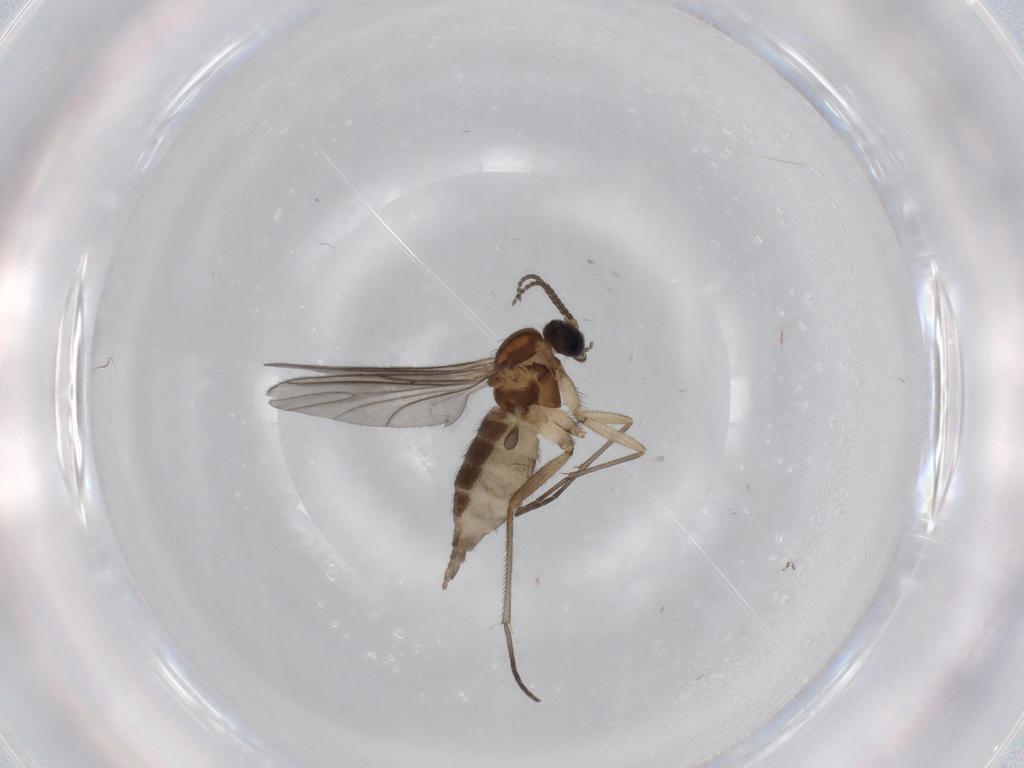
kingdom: Animalia
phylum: Arthropoda
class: Insecta
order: Diptera
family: Sciaridae
